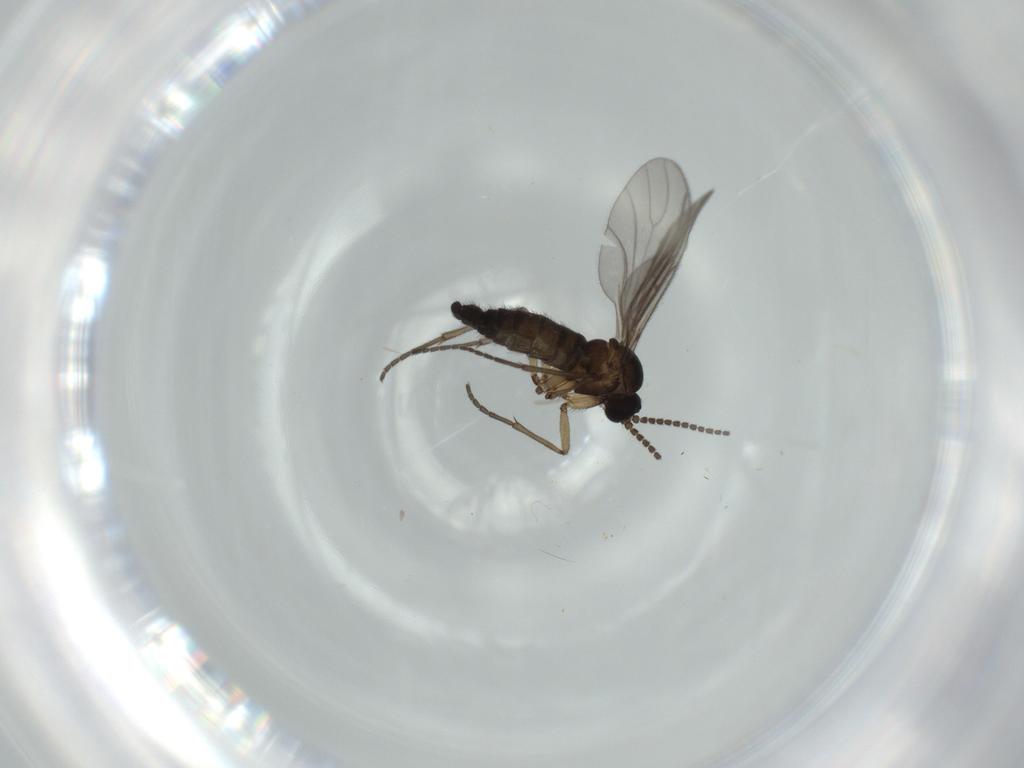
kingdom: Animalia
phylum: Arthropoda
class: Insecta
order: Diptera
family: Sciaridae
